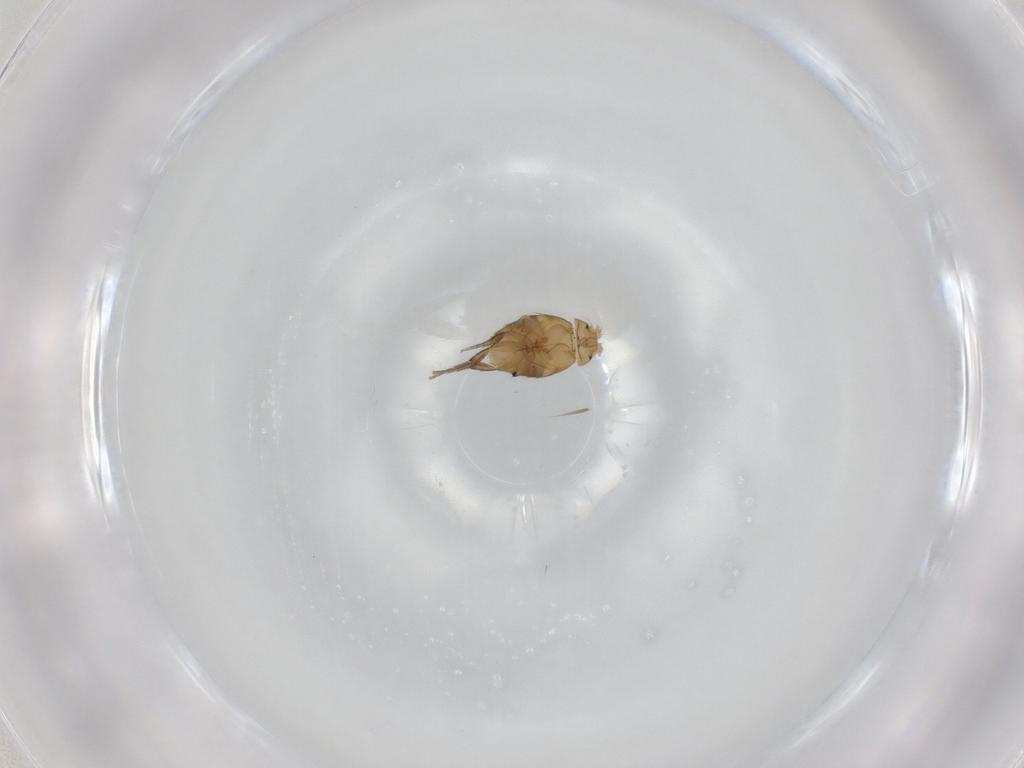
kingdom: Animalia
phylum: Arthropoda
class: Insecta
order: Diptera
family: Phoridae
